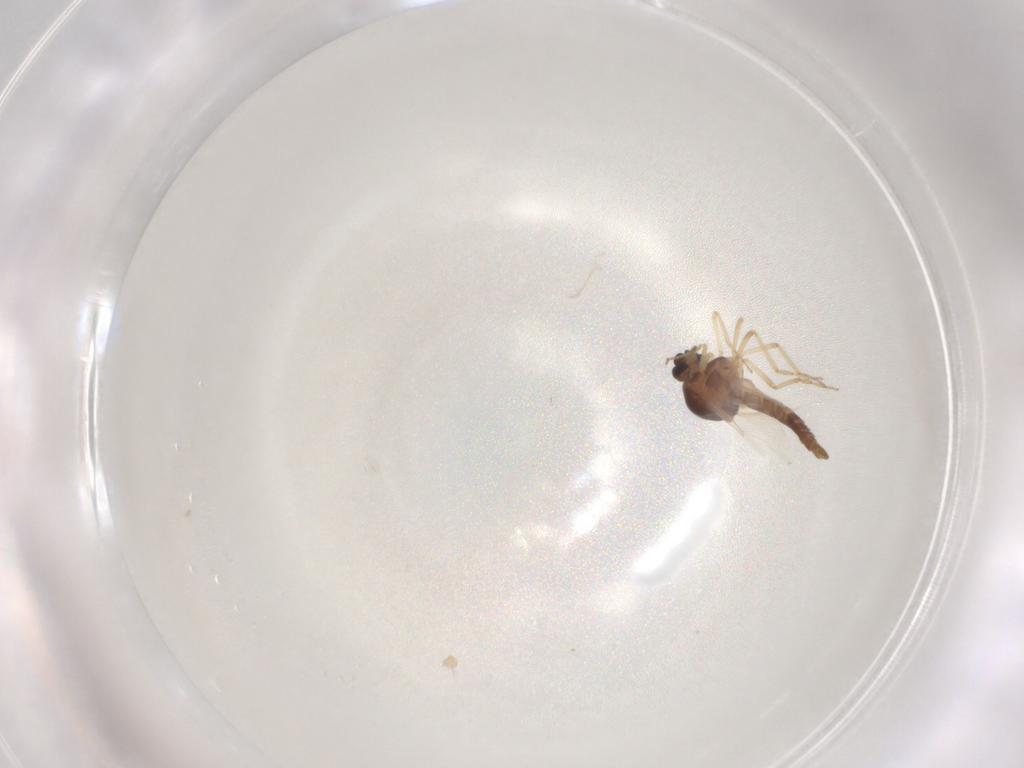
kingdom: Animalia
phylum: Arthropoda
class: Insecta
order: Diptera
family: Ceratopogonidae
